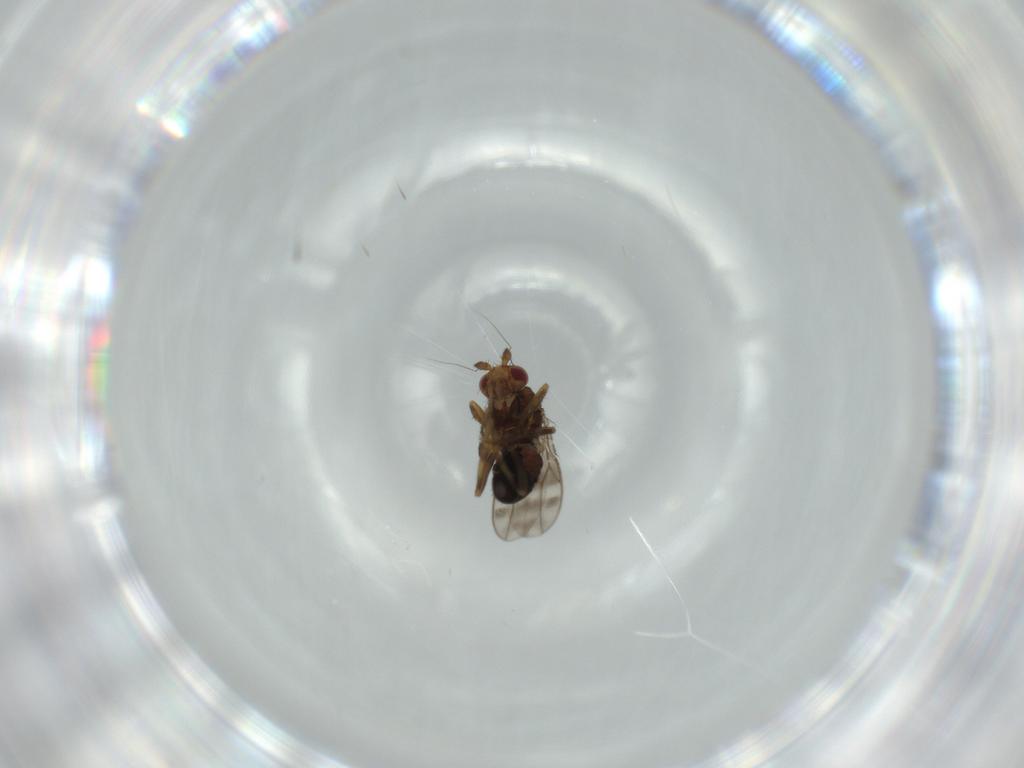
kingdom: Animalia
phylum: Arthropoda
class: Insecta
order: Diptera
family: Sphaeroceridae
